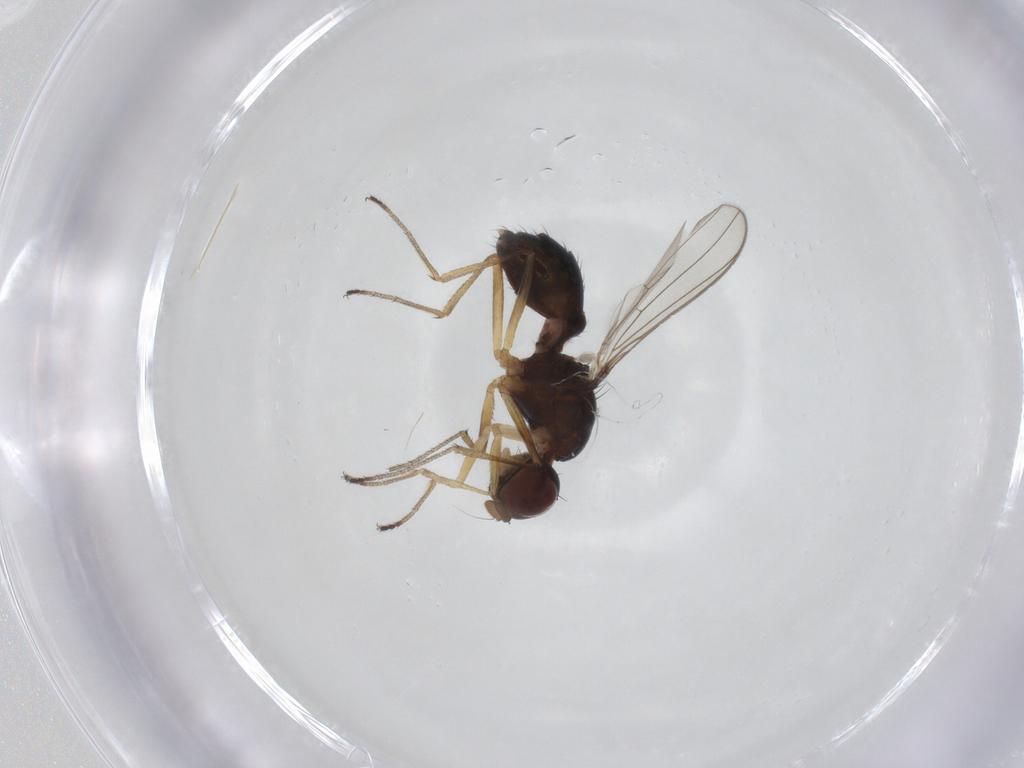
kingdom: Animalia
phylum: Arthropoda
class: Insecta
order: Diptera
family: Sepsidae
